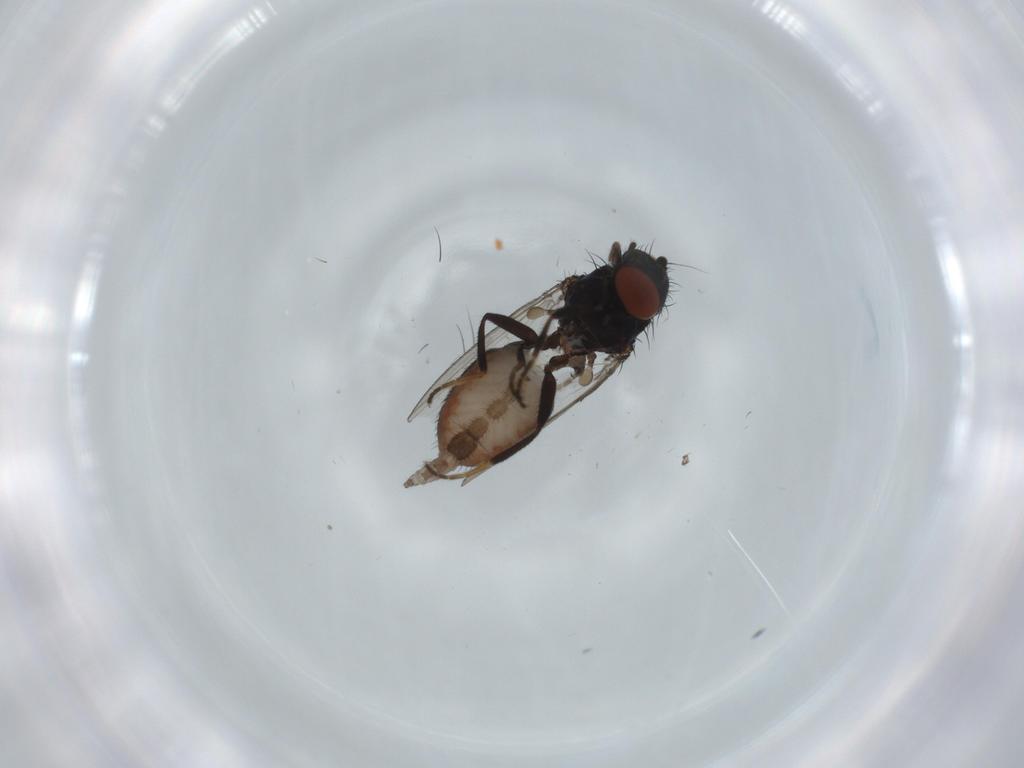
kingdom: Animalia
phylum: Arthropoda
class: Insecta
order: Diptera
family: Milichiidae
